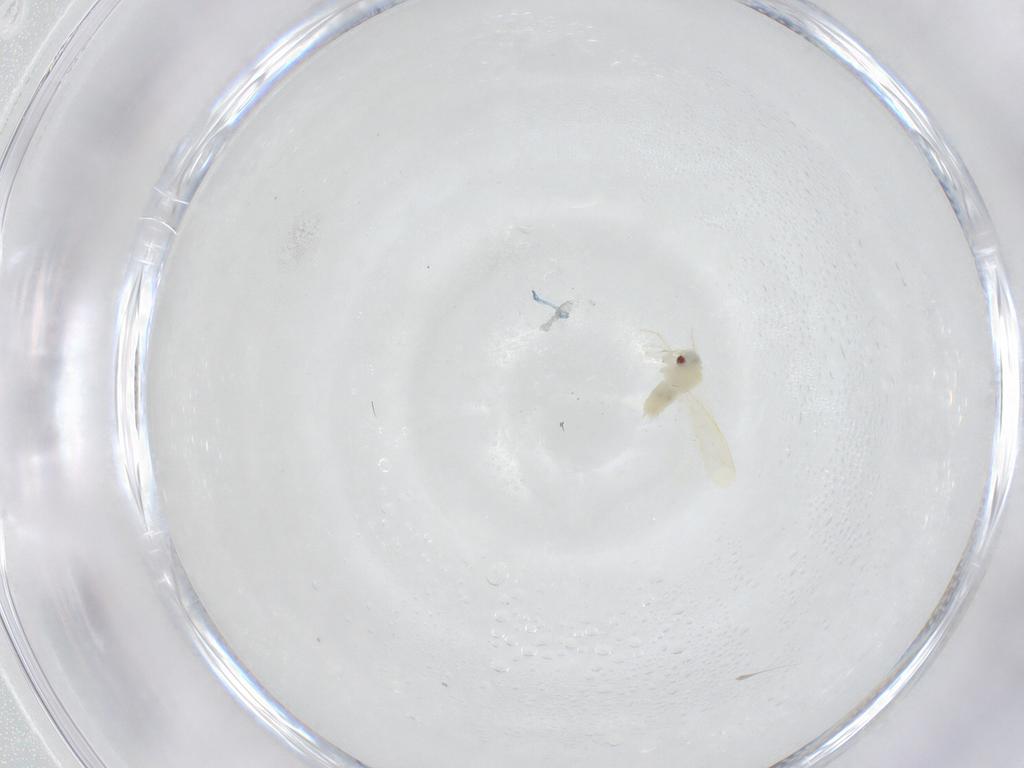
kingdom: Animalia
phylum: Arthropoda
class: Insecta
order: Hemiptera
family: Aleyrodidae
